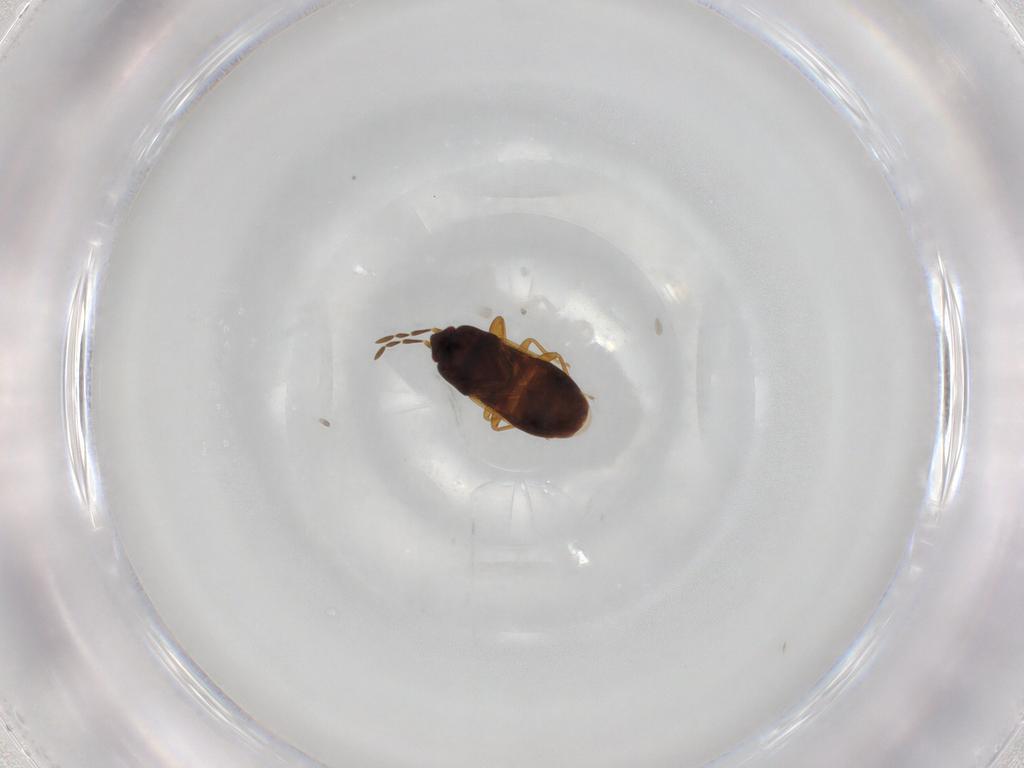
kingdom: Animalia
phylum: Arthropoda
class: Insecta
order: Hemiptera
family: Rhyparochromidae
